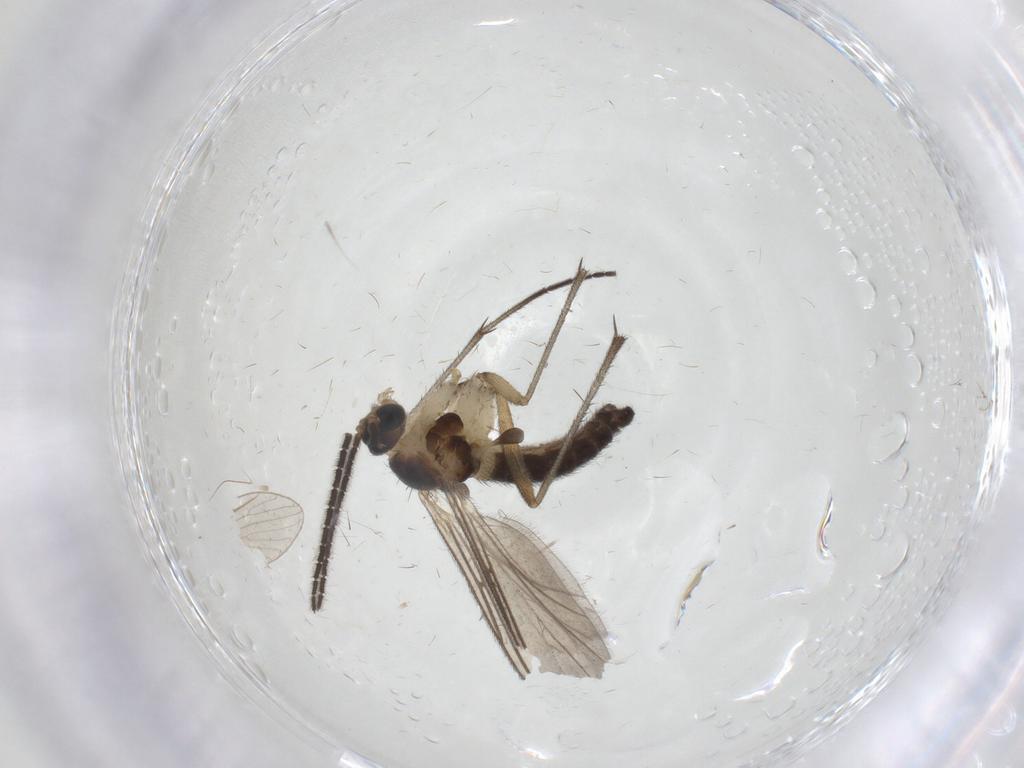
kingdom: Animalia
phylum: Arthropoda
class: Insecta
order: Diptera
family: Sciaridae
